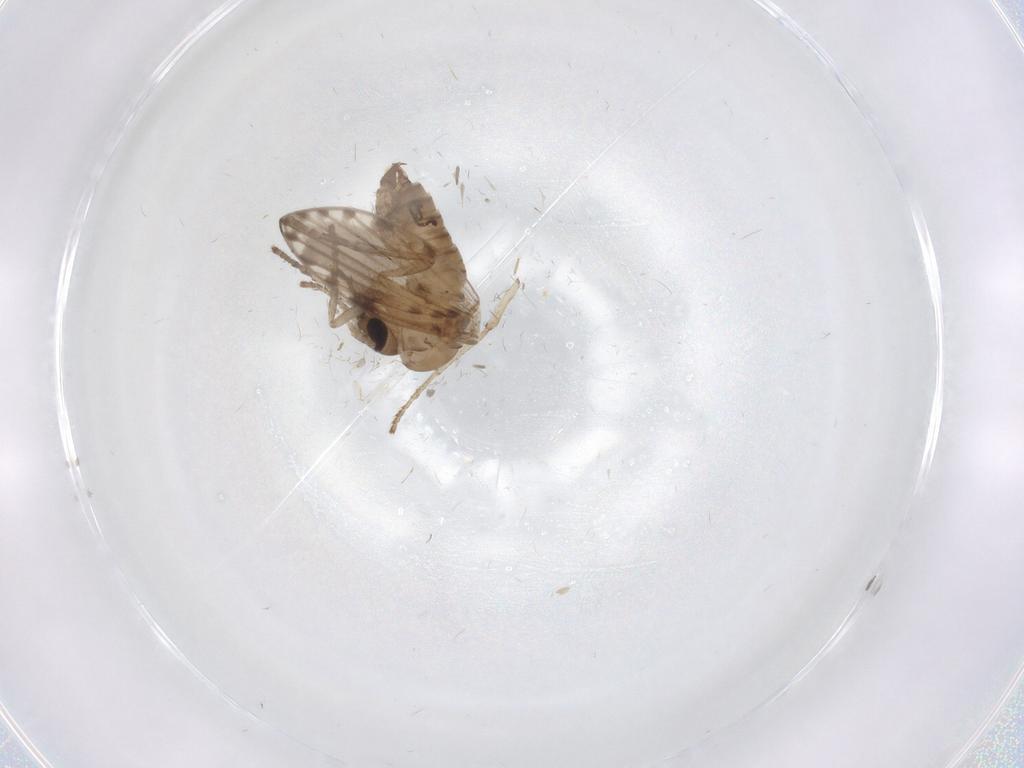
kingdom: Animalia
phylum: Arthropoda
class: Insecta
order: Diptera
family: Psychodidae
